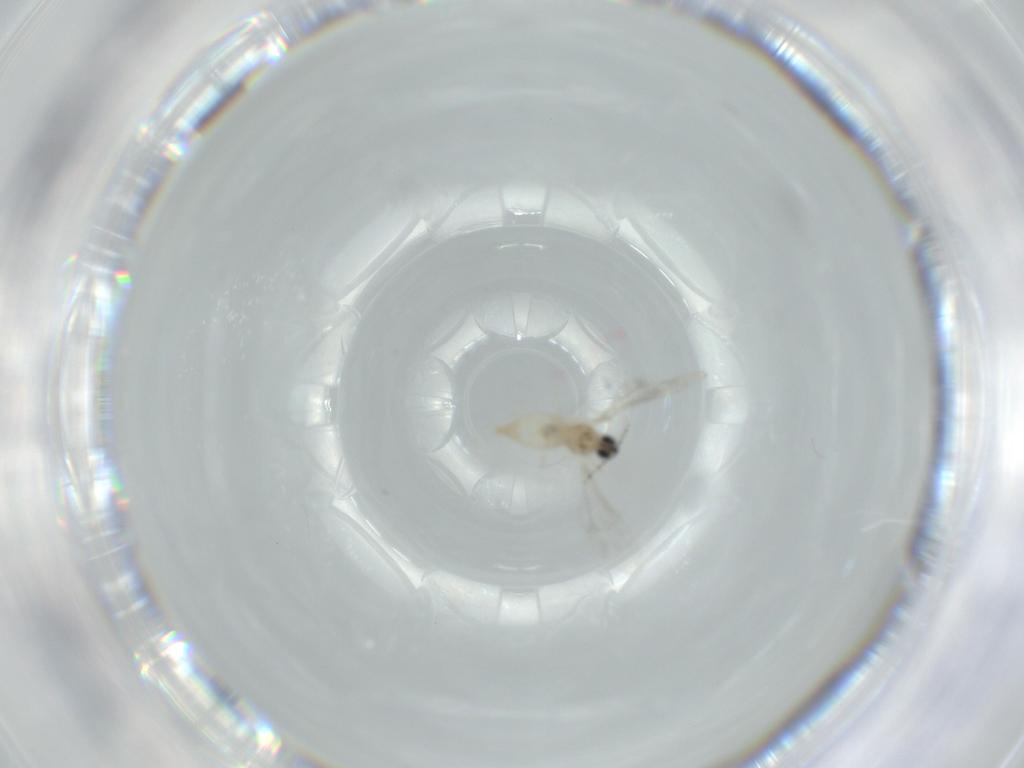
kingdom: Animalia
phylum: Arthropoda
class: Insecta
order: Diptera
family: Cecidomyiidae
